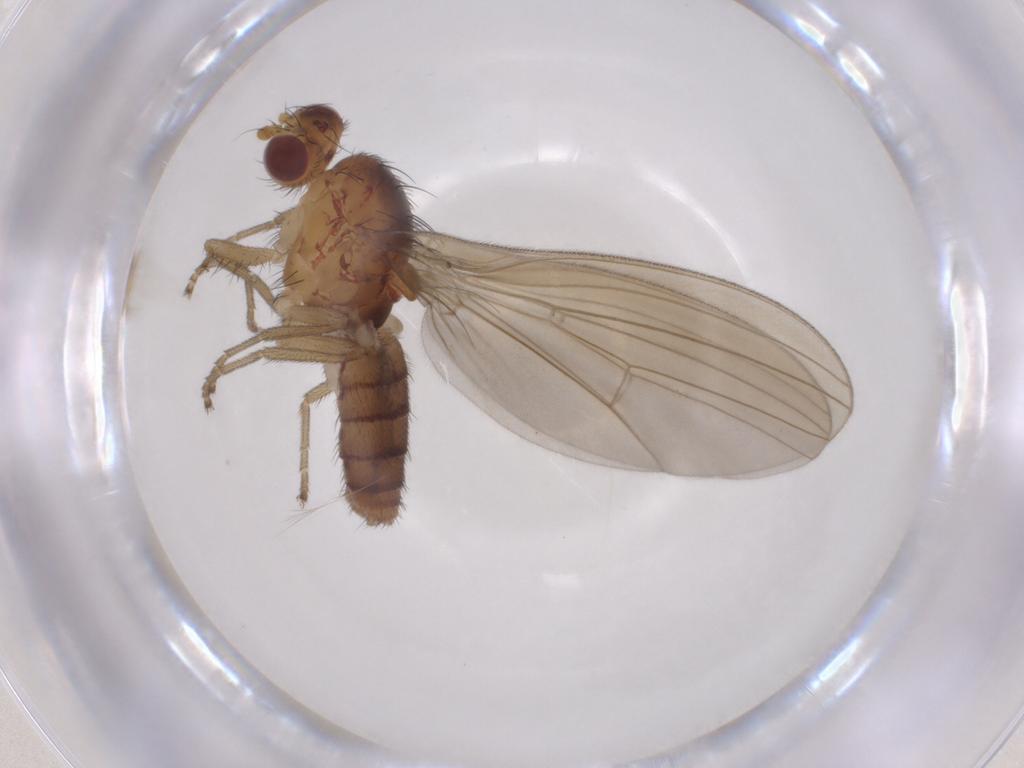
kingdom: Animalia
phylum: Arthropoda
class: Insecta
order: Diptera
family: Natalimyzidae
